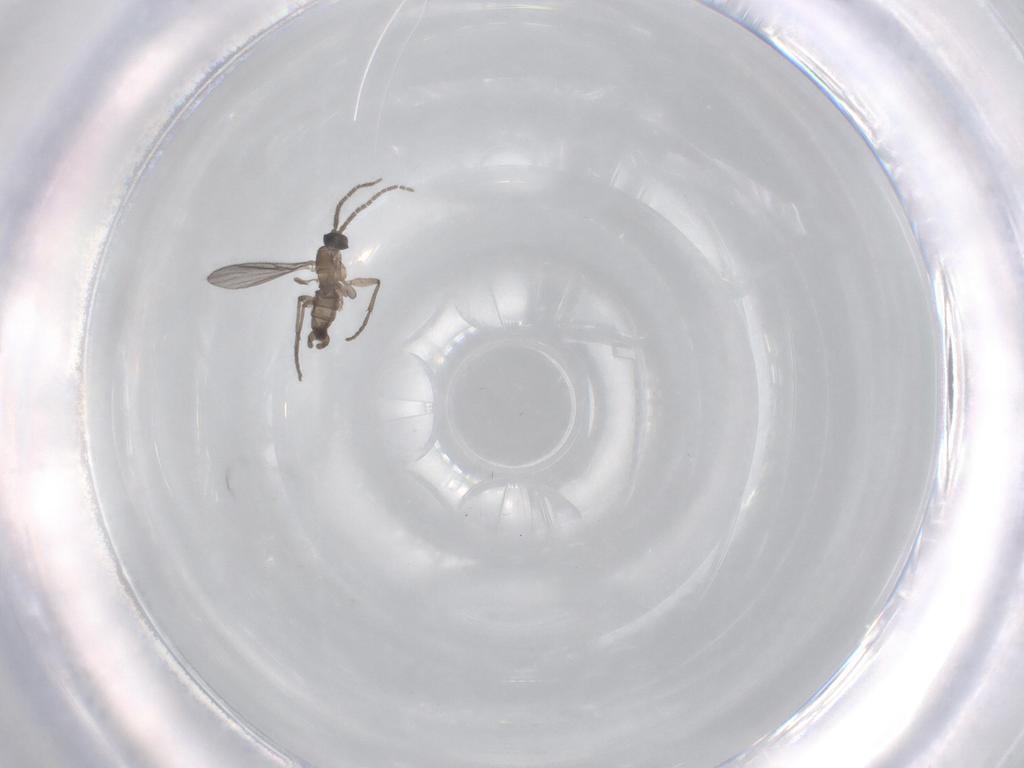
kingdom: Animalia
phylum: Arthropoda
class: Insecta
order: Diptera
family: Sciaridae
